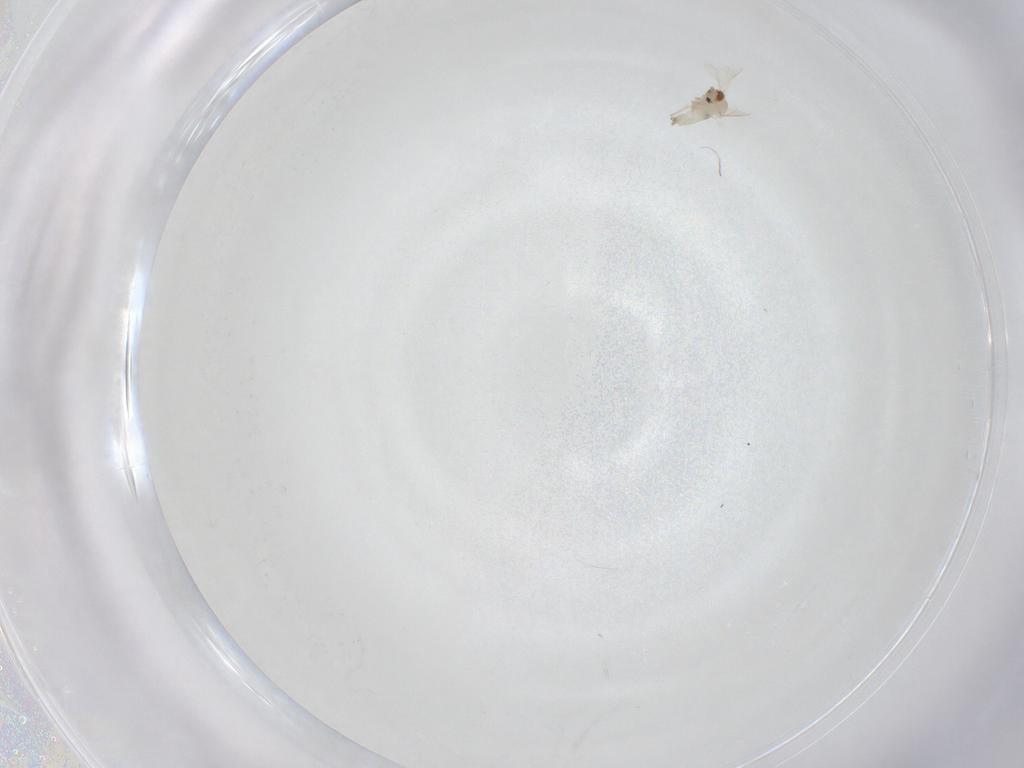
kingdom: Animalia
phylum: Arthropoda
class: Insecta
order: Diptera
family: Cecidomyiidae
